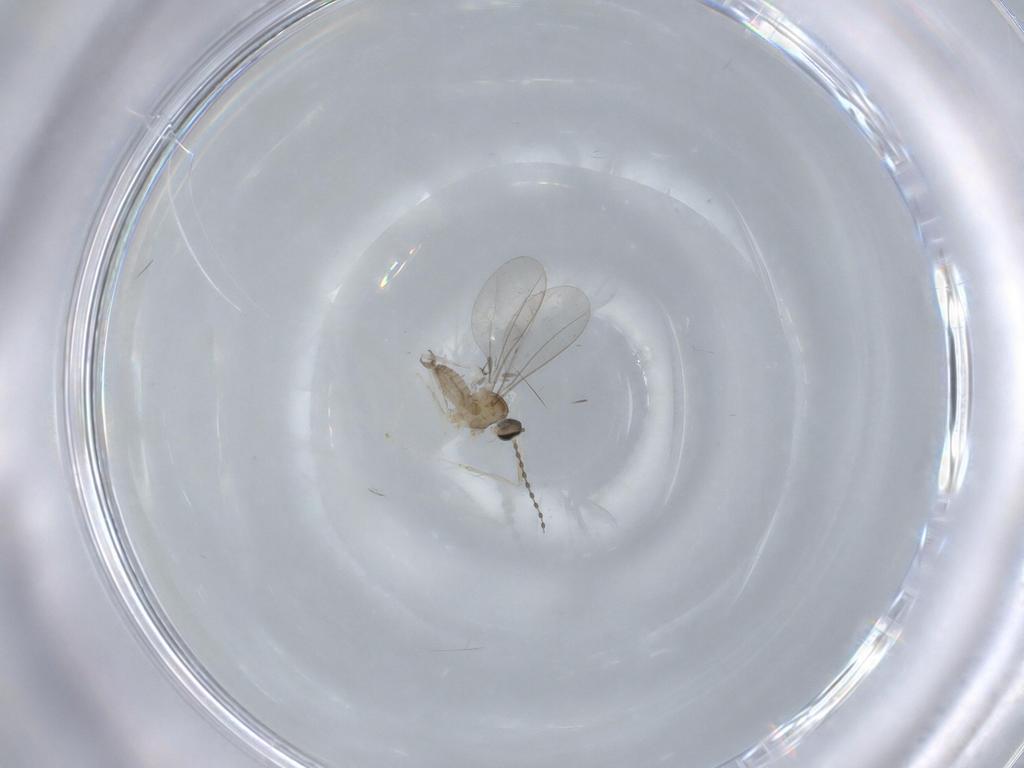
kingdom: Animalia
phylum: Arthropoda
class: Insecta
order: Diptera
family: Cecidomyiidae
